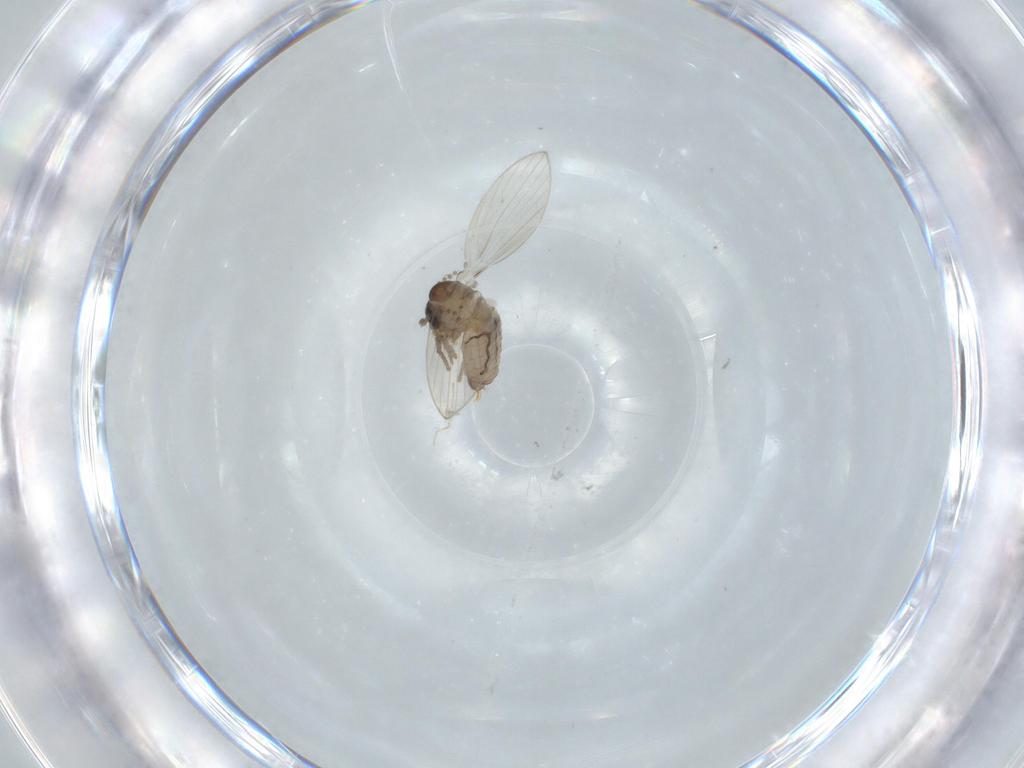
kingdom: Animalia
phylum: Arthropoda
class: Insecta
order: Diptera
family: Psychodidae
